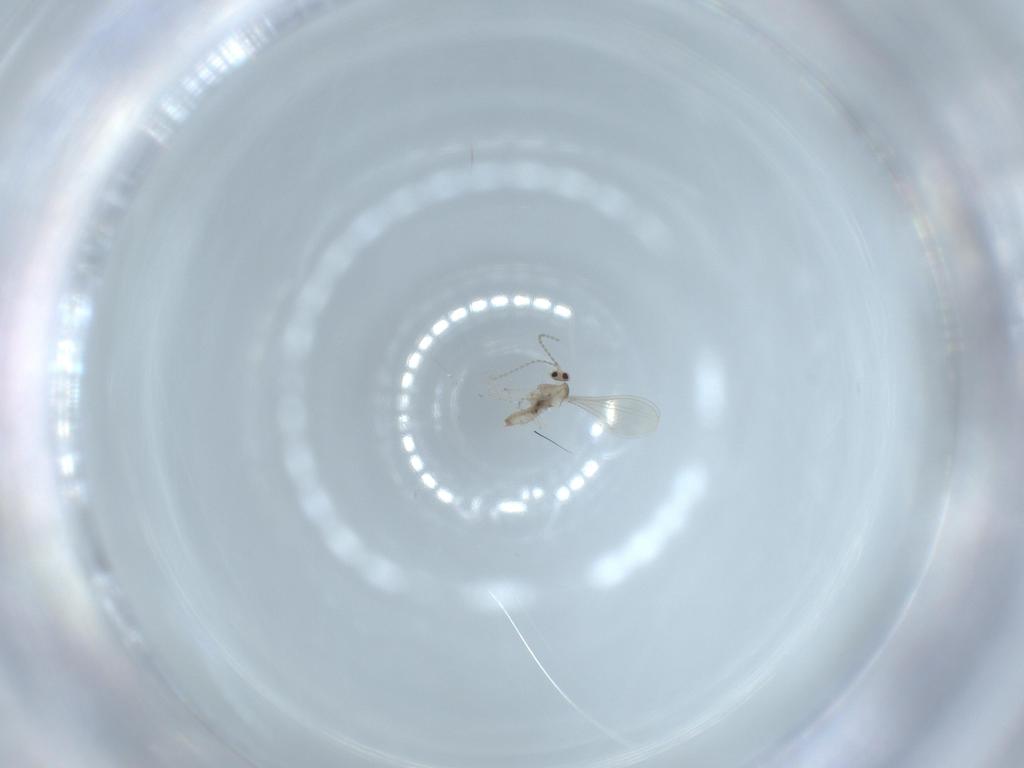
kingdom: Animalia
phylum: Arthropoda
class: Insecta
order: Diptera
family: Cecidomyiidae
